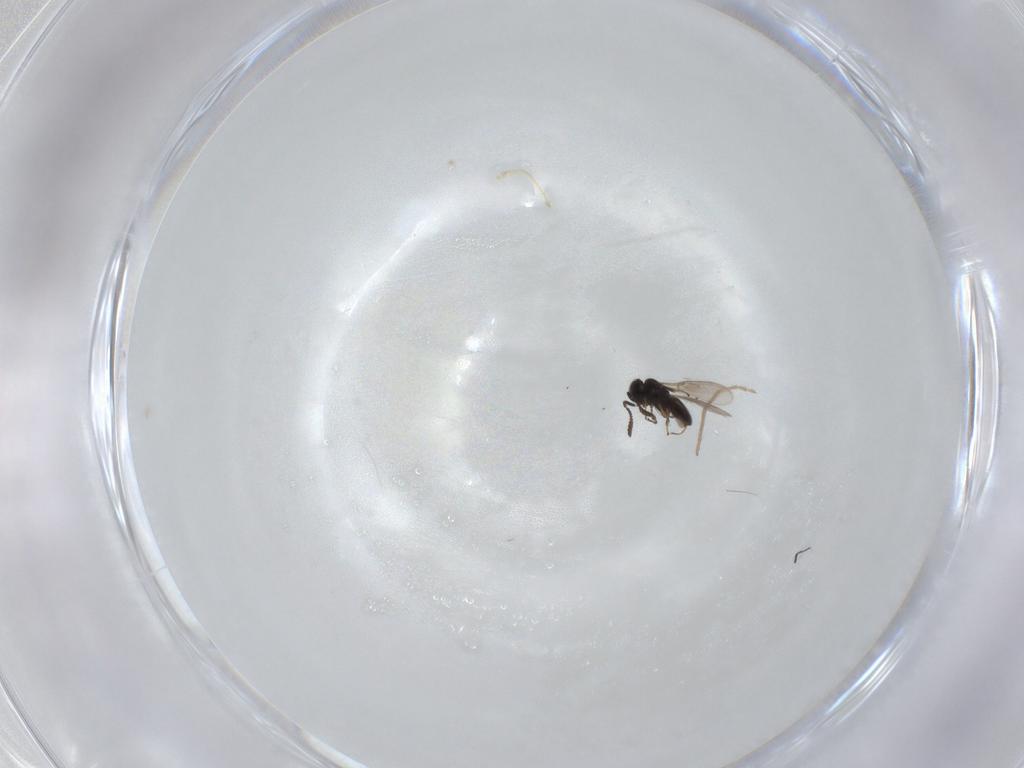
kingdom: Animalia
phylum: Arthropoda
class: Insecta
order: Hymenoptera
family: Scelionidae
